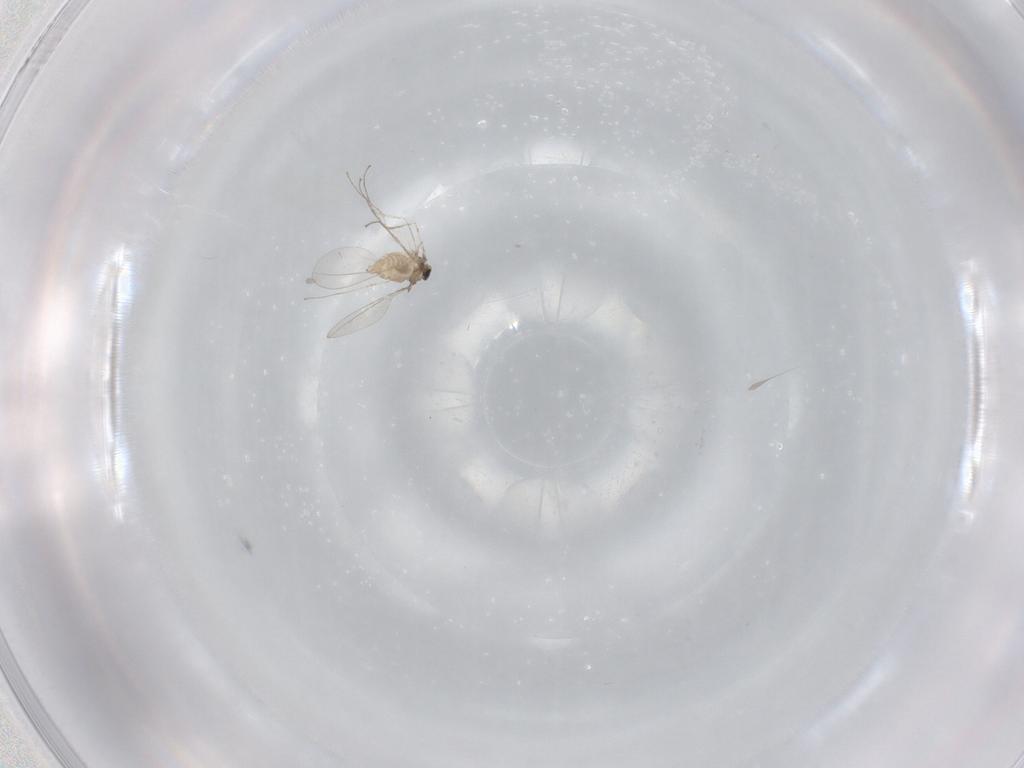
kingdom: Animalia
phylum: Arthropoda
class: Insecta
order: Diptera
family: Cecidomyiidae
